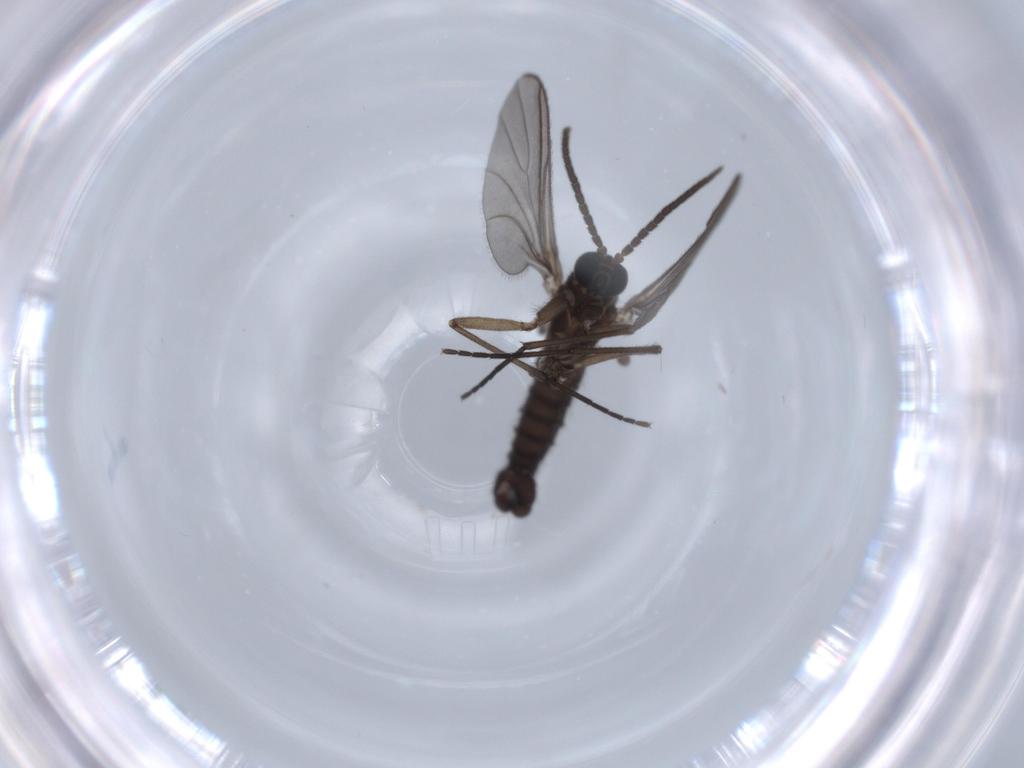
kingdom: Animalia
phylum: Arthropoda
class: Insecta
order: Diptera
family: Sciaridae
